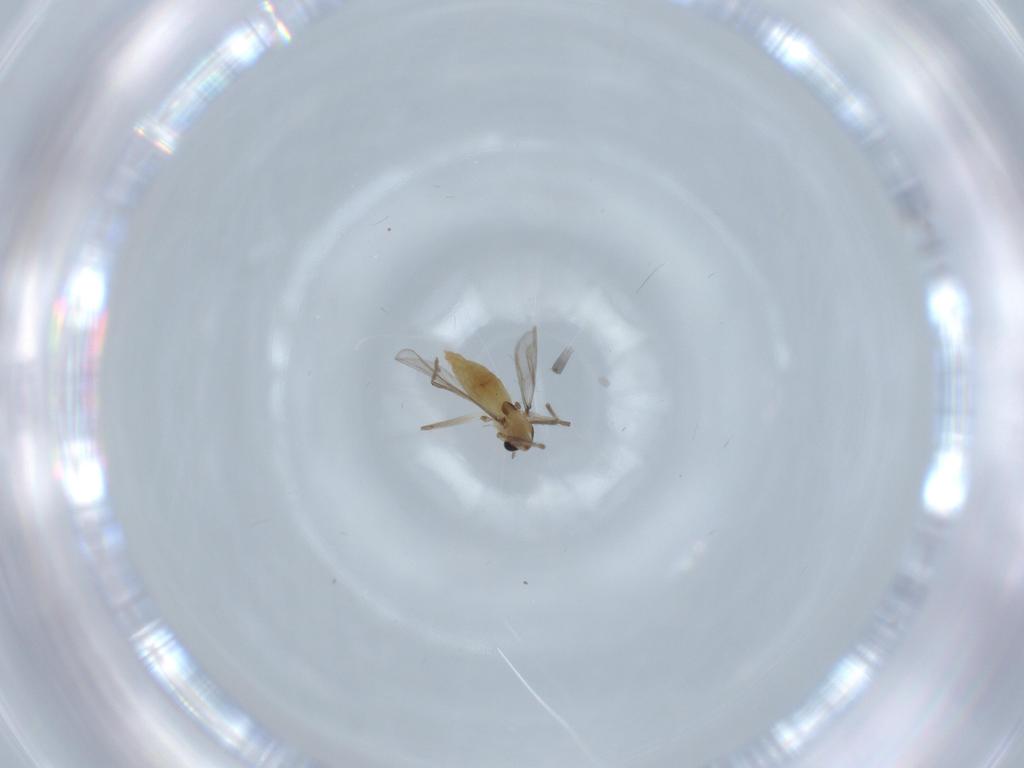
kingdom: Animalia
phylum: Arthropoda
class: Insecta
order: Diptera
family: Chironomidae
